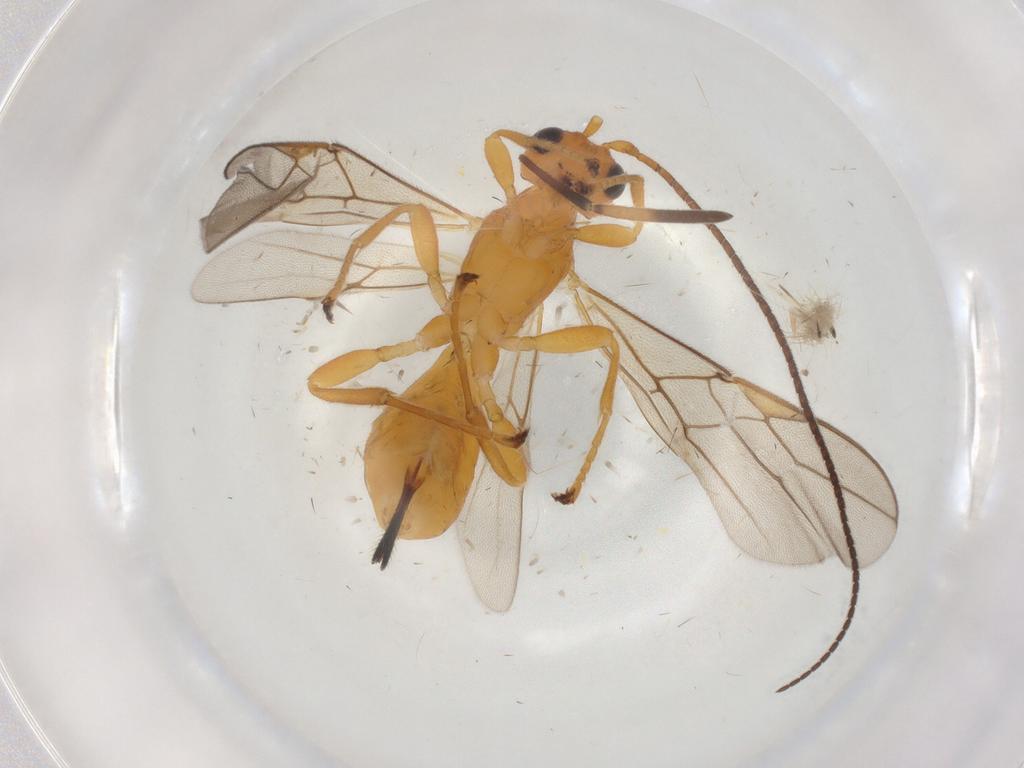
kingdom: Animalia
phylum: Arthropoda
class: Insecta
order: Hymenoptera
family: Braconidae
